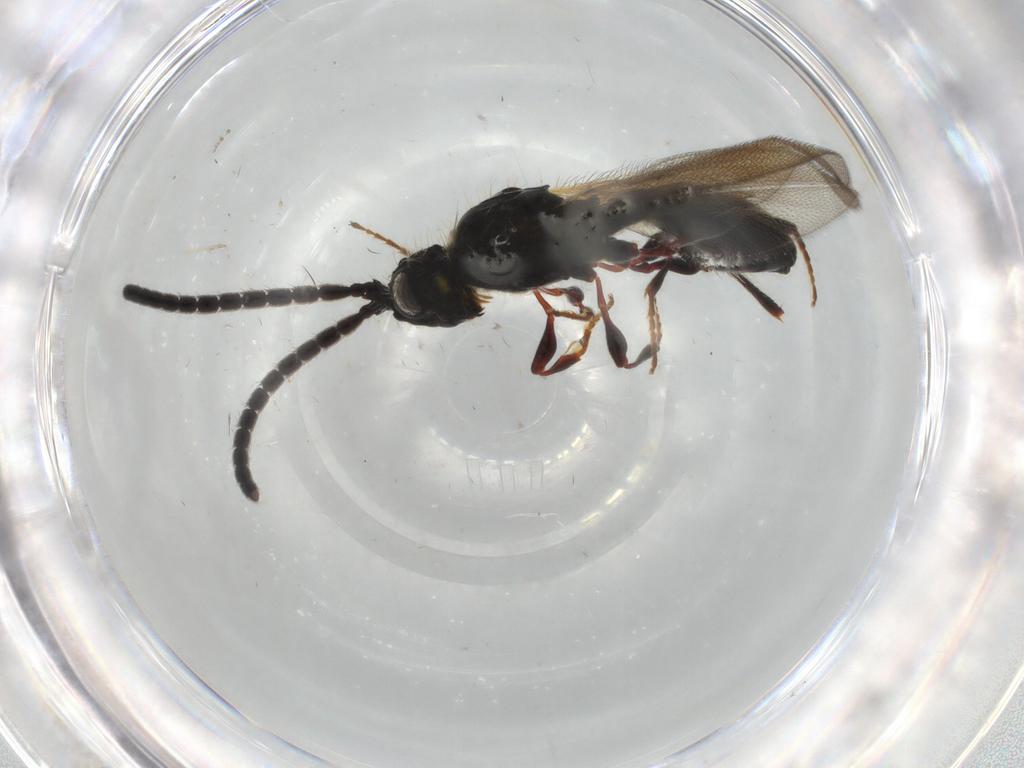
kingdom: Animalia
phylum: Arthropoda
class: Insecta
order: Hymenoptera
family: Diapriidae
